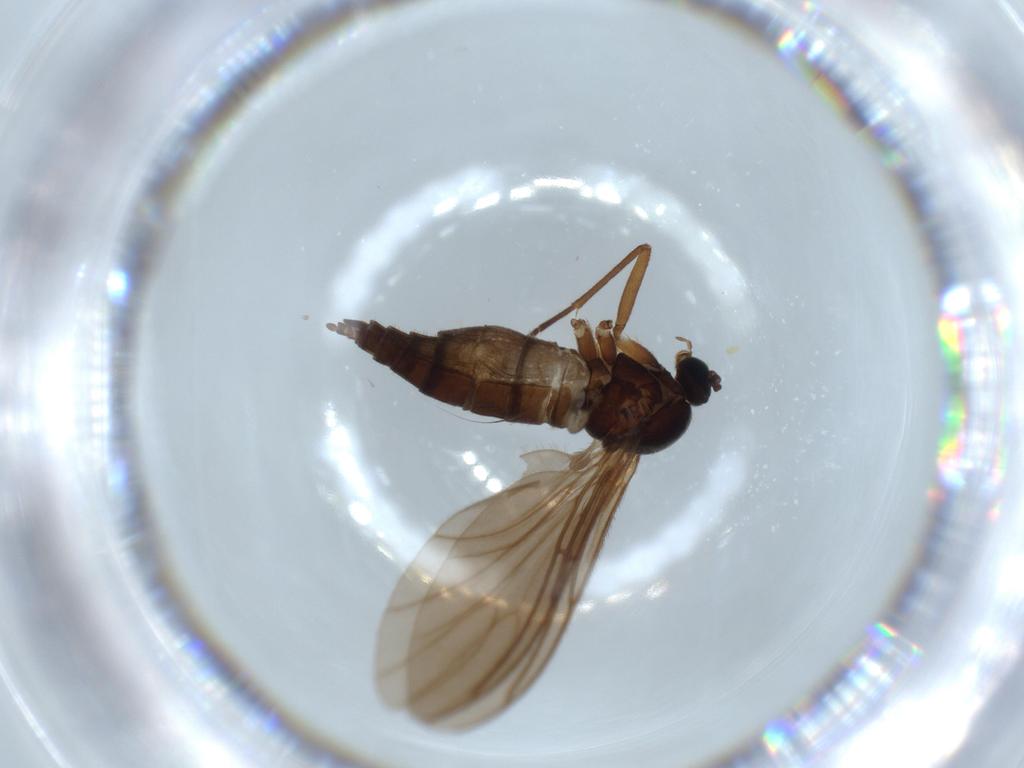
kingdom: Animalia
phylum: Arthropoda
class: Insecta
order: Diptera
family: Sciaridae
